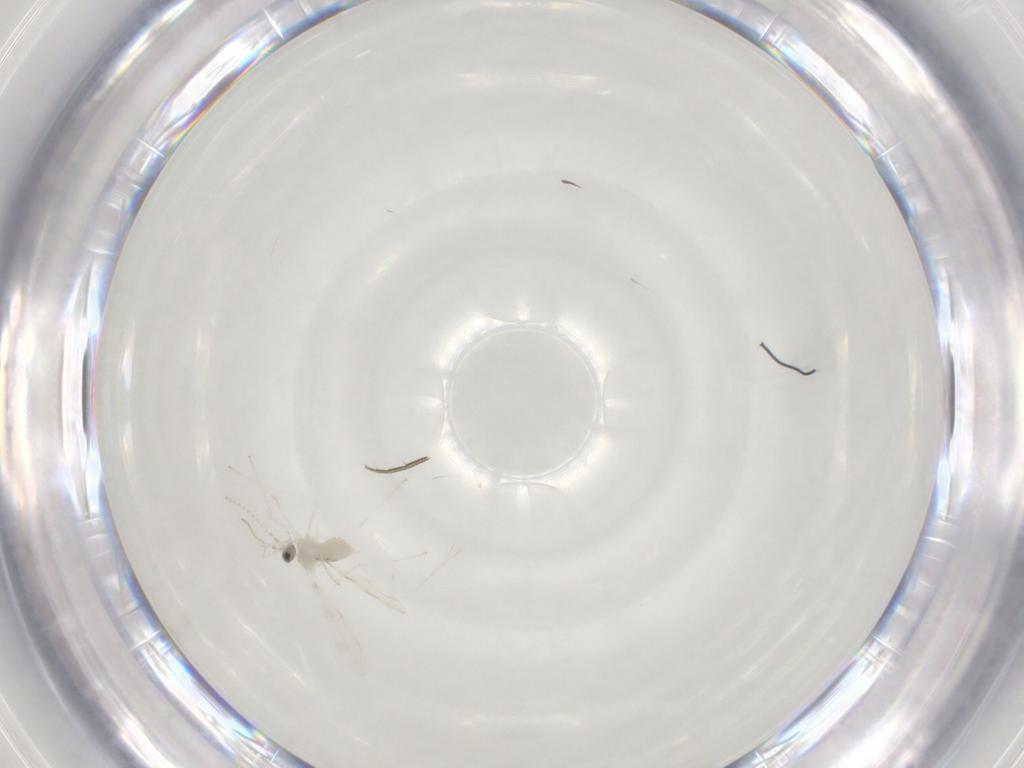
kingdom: Animalia
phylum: Arthropoda
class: Insecta
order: Diptera
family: Cecidomyiidae
